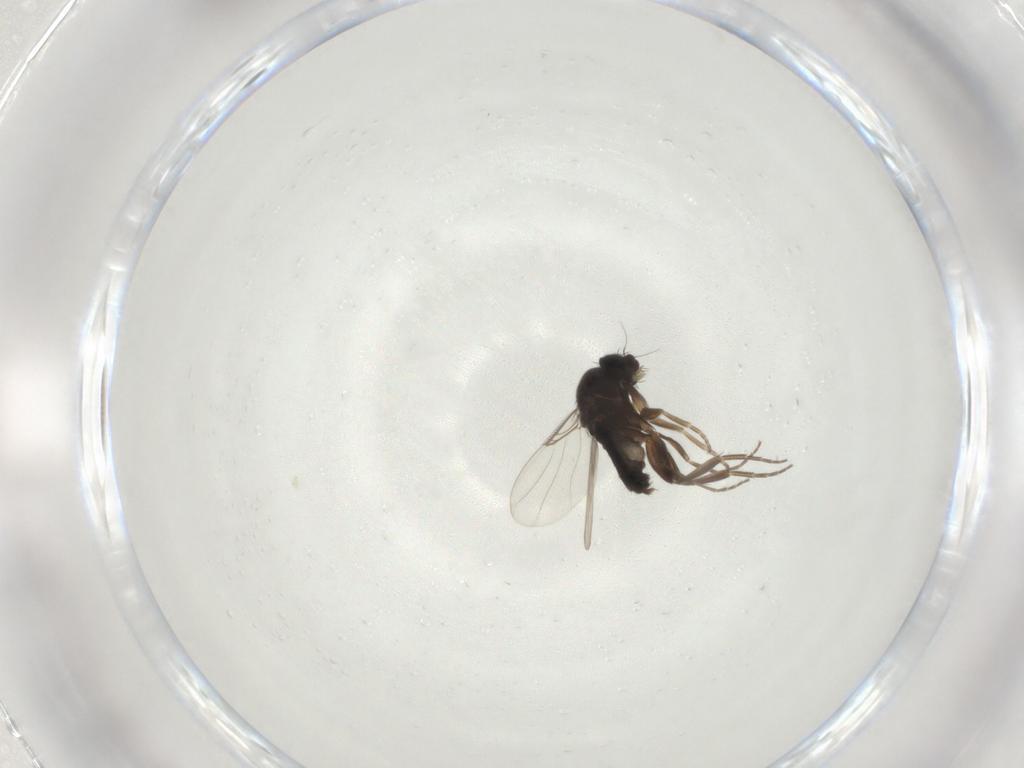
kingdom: Animalia
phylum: Arthropoda
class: Insecta
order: Diptera
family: Phoridae
